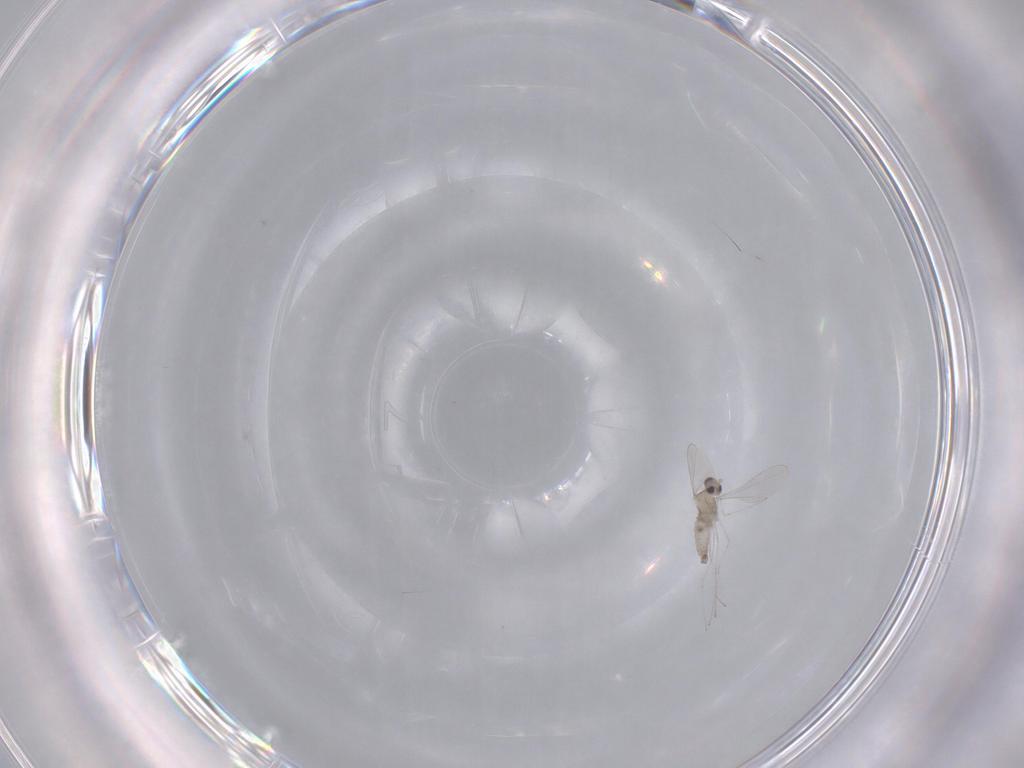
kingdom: Animalia
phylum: Arthropoda
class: Insecta
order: Diptera
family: Cecidomyiidae
